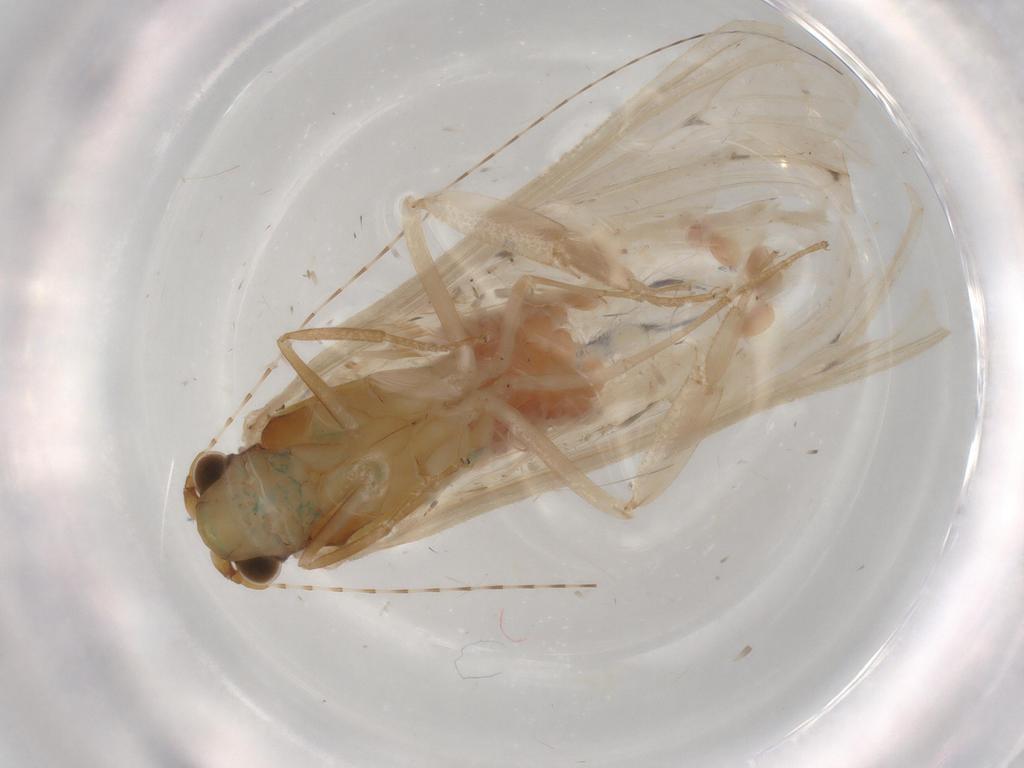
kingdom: Animalia
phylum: Arthropoda
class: Insecta
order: Trichoptera
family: Hydropsychidae
